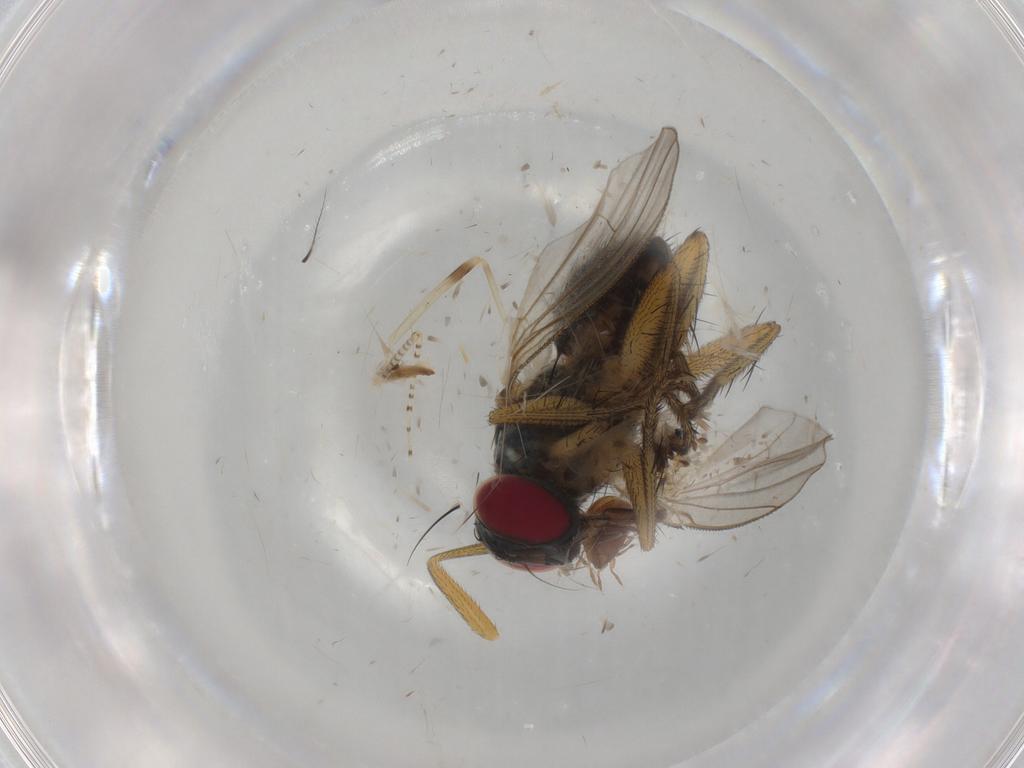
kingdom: Animalia
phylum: Arthropoda
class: Insecta
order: Diptera
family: Muscidae
